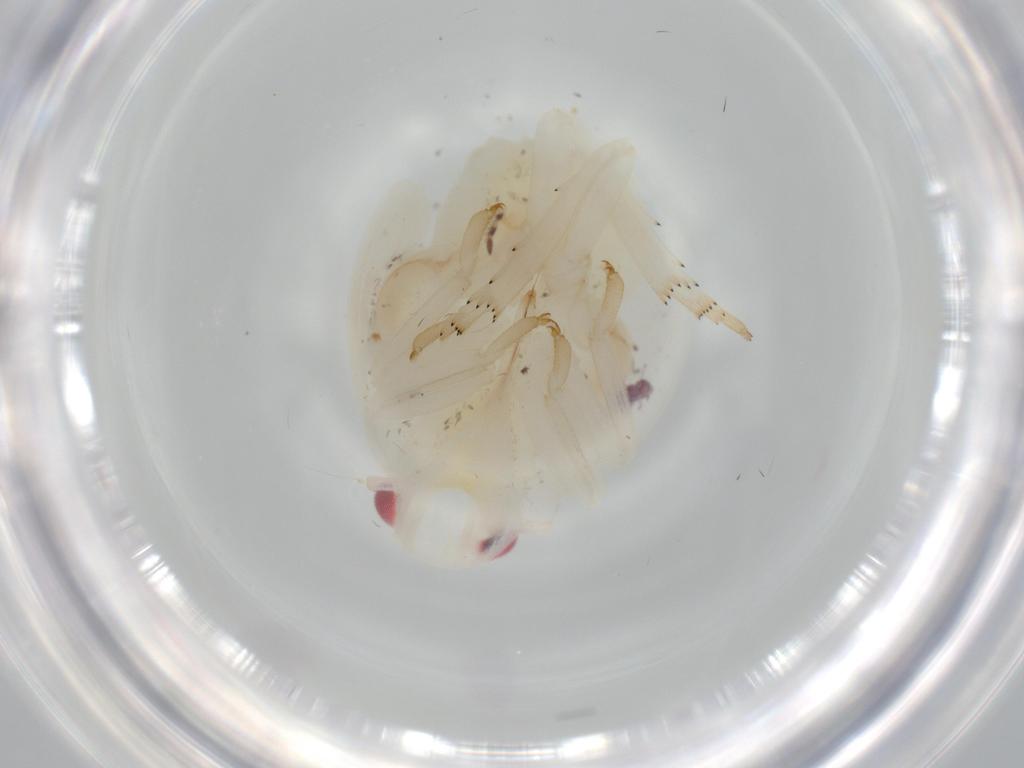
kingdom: Animalia
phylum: Arthropoda
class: Insecta
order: Hemiptera
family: Flatidae
